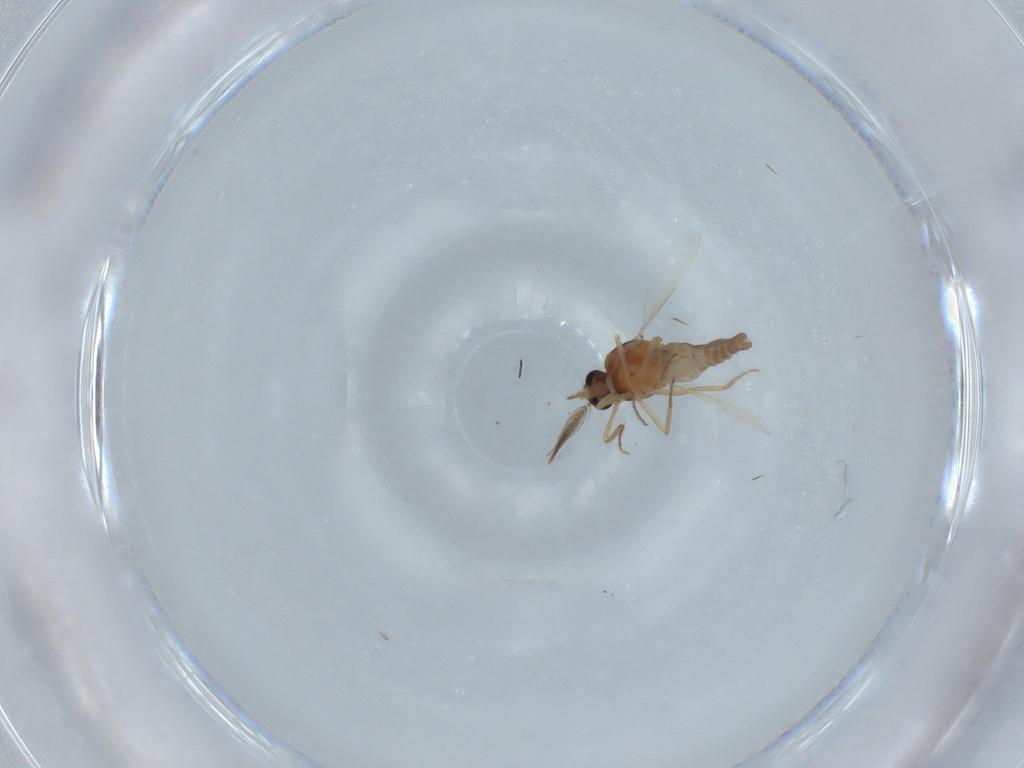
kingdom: Animalia
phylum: Arthropoda
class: Insecta
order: Diptera
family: Ceratopogonidae
